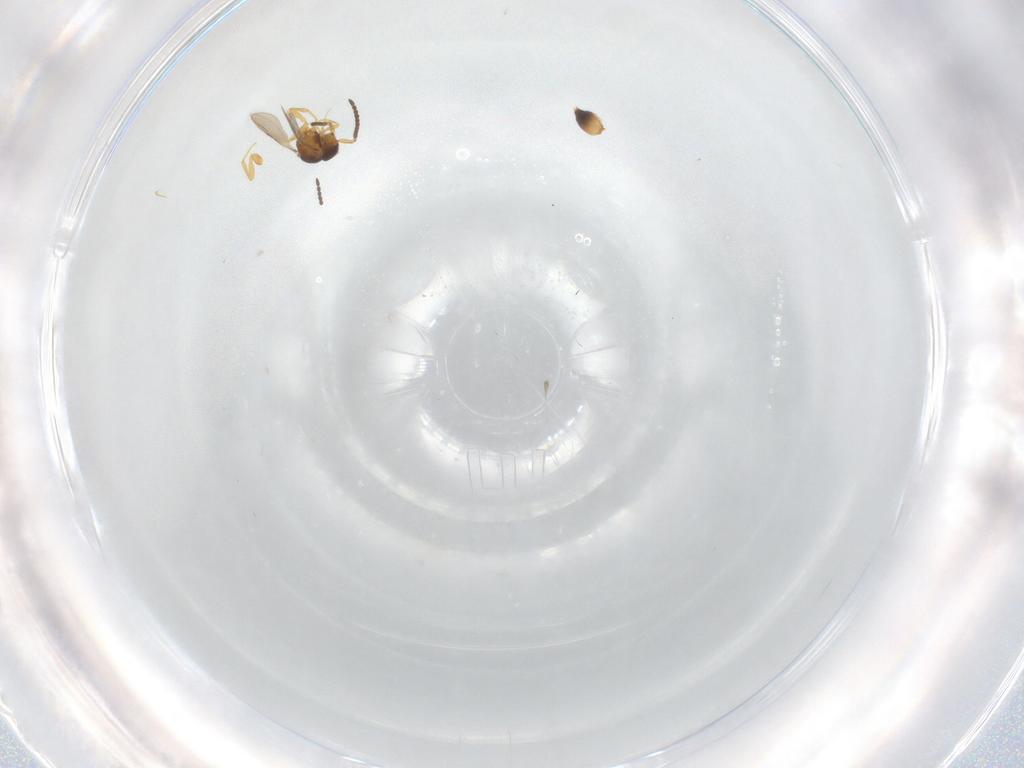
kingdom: Animalia
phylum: Arthropoda
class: Insecta
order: Hymenoptera
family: Ceraphronidae
